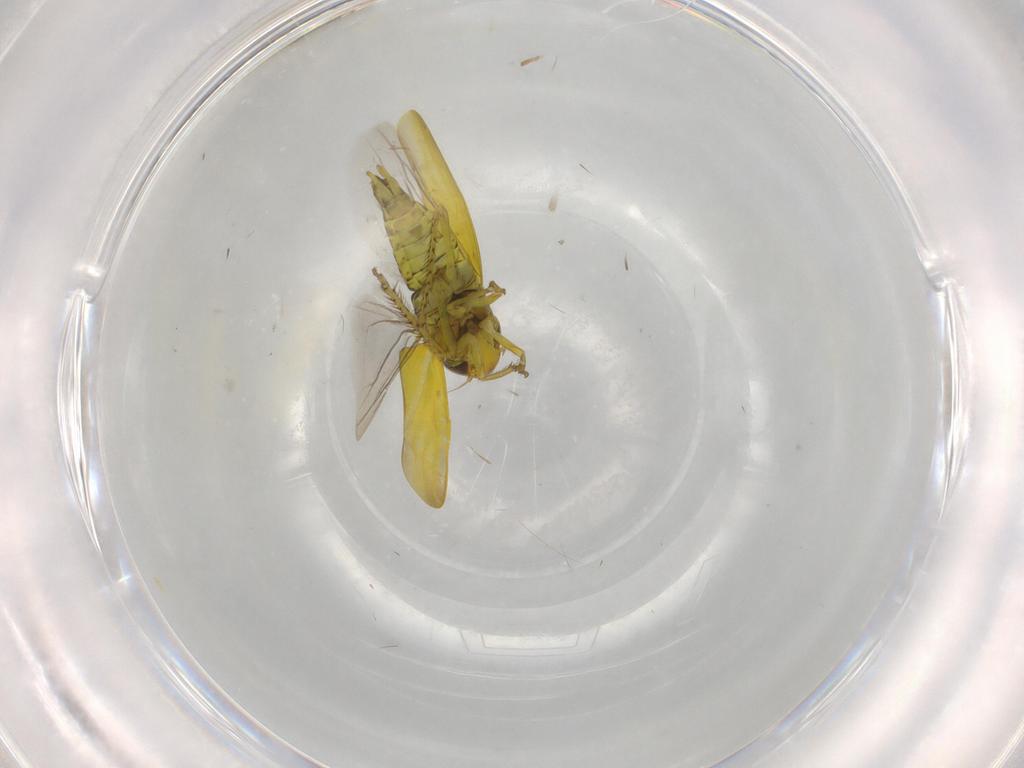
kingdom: Animalia
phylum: Arthropoda
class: Insecta
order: Hemiptera
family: Cicadellidae
